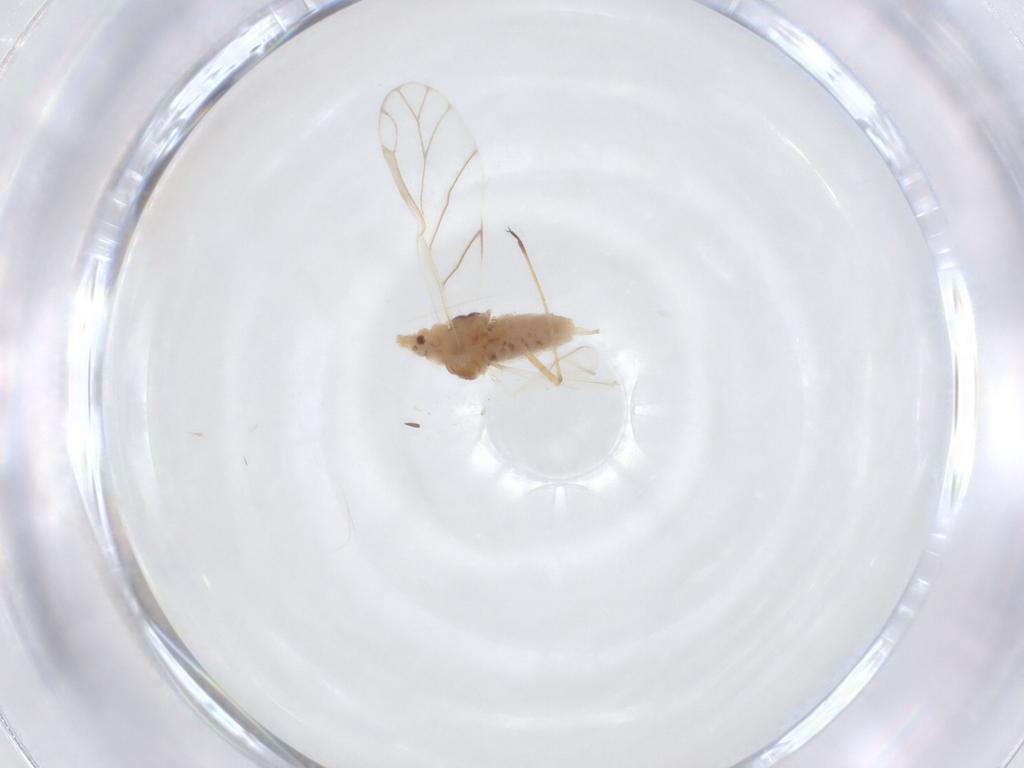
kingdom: Animalia
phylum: Arthropoda
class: Insecta
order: Hemiptera
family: Aphididae
